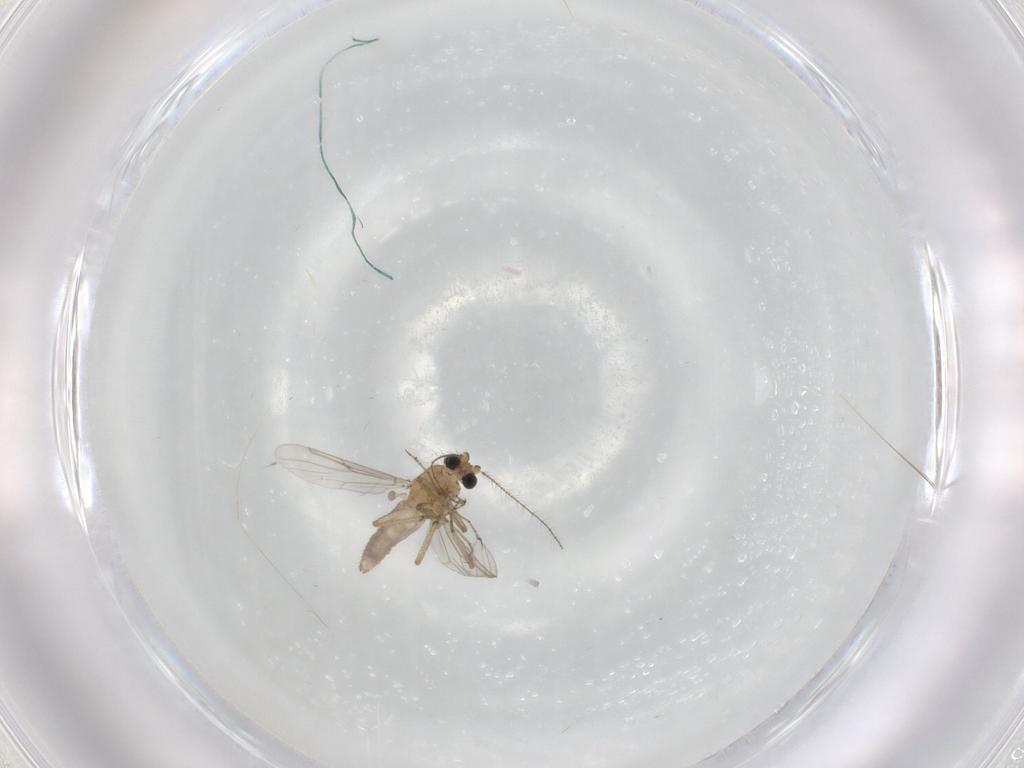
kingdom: Animalia
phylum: Arthropoda
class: Insecta
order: Diptera
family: Ceratopogonidae
